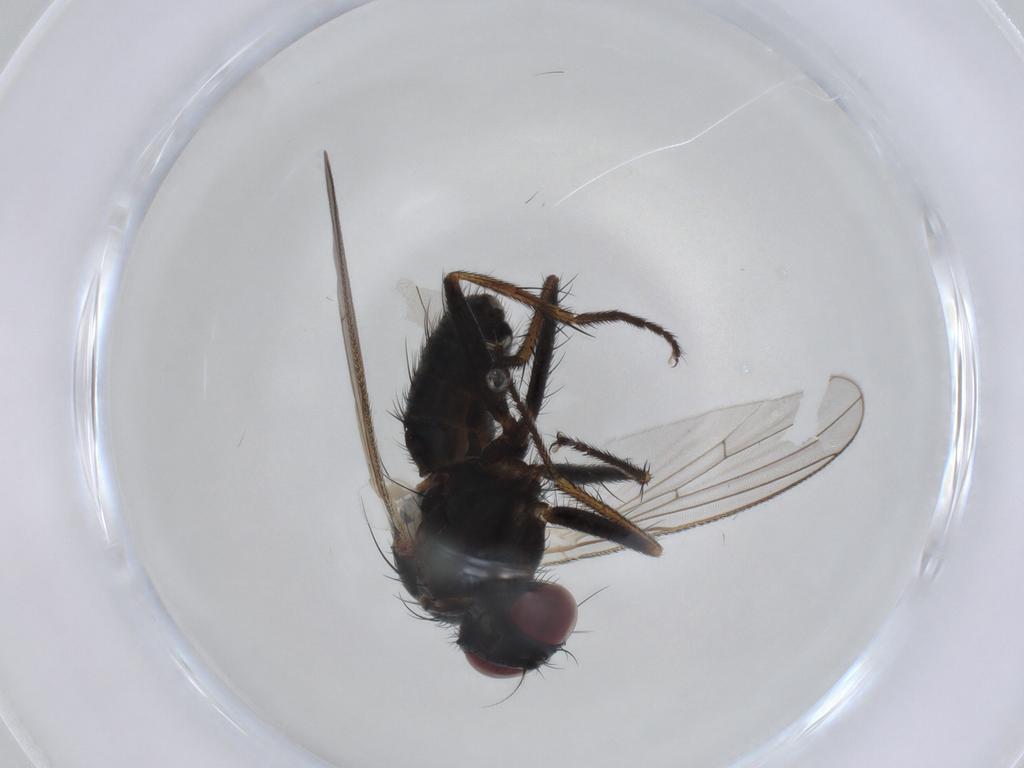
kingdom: Animalia
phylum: Arthropoda
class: Insecta
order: Diptera
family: Muscidae
